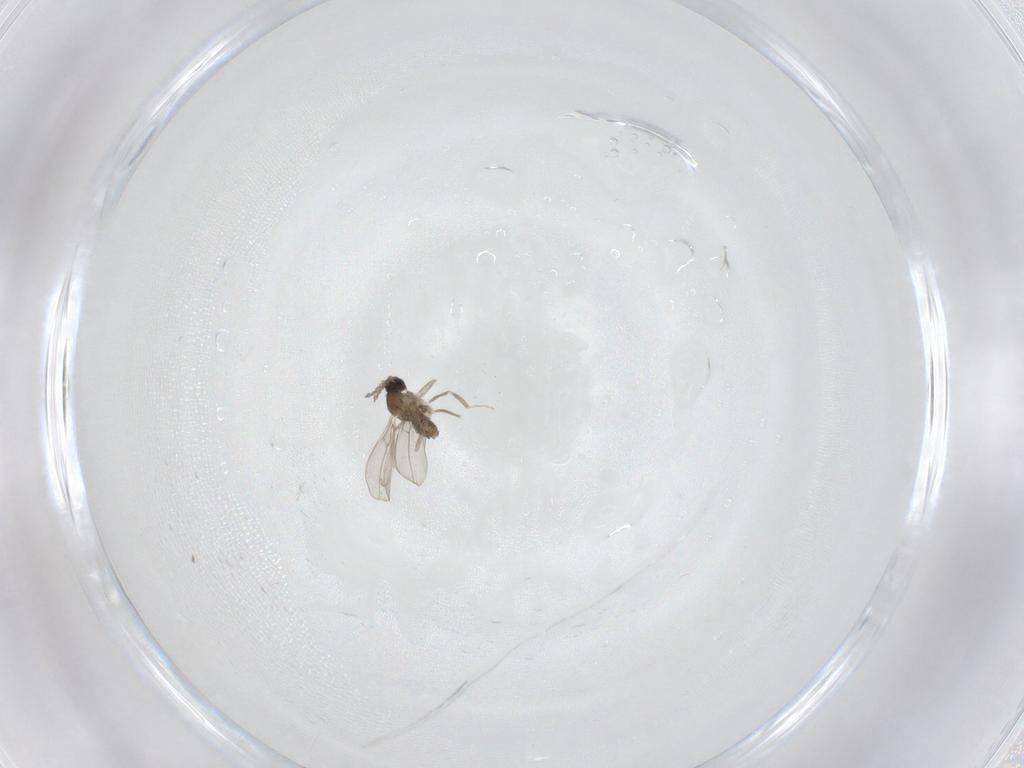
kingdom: Animalia
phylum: Arthropoda
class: Insecta
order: Diptera
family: Cecidomyiidae
